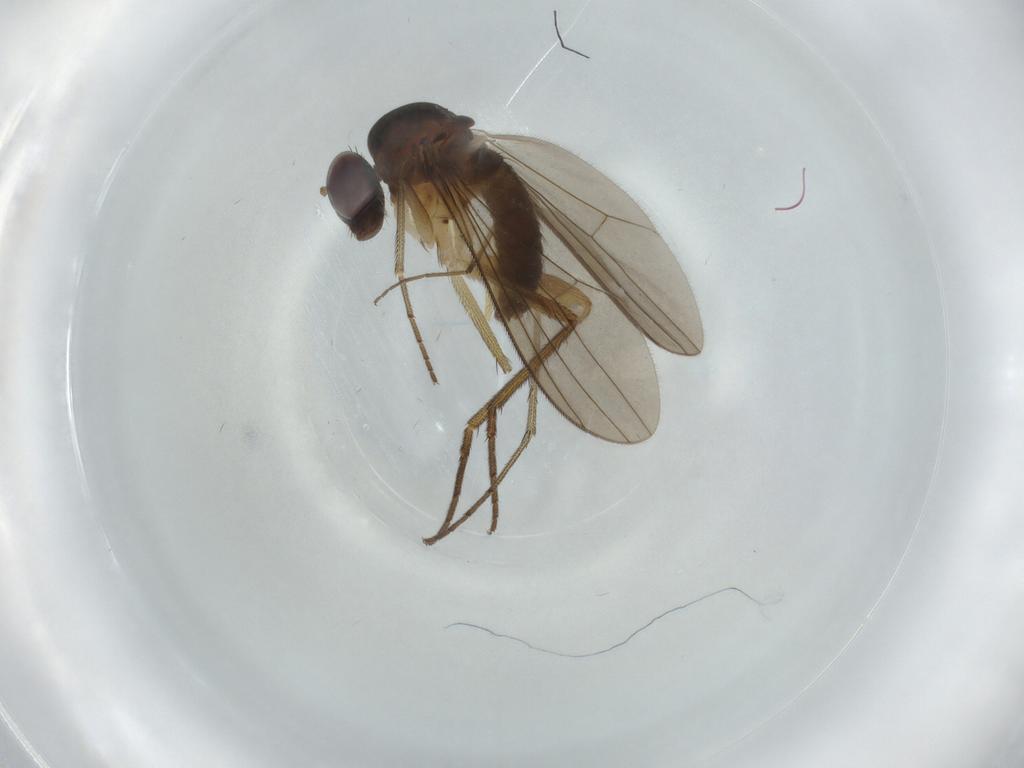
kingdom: Animalia
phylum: Arthropoda
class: Insecta
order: Diptera
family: Dolichopodidae
